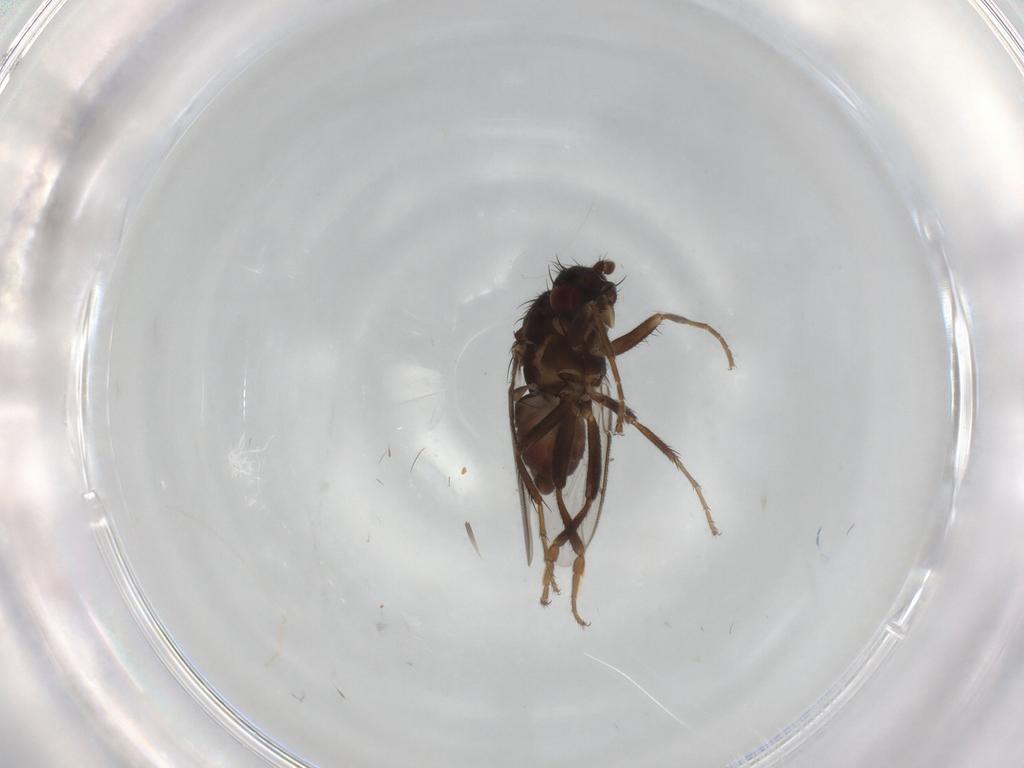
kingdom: Animalia
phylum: Arthropoda
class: Insecta
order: Diptera
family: Sphaeroceridae
